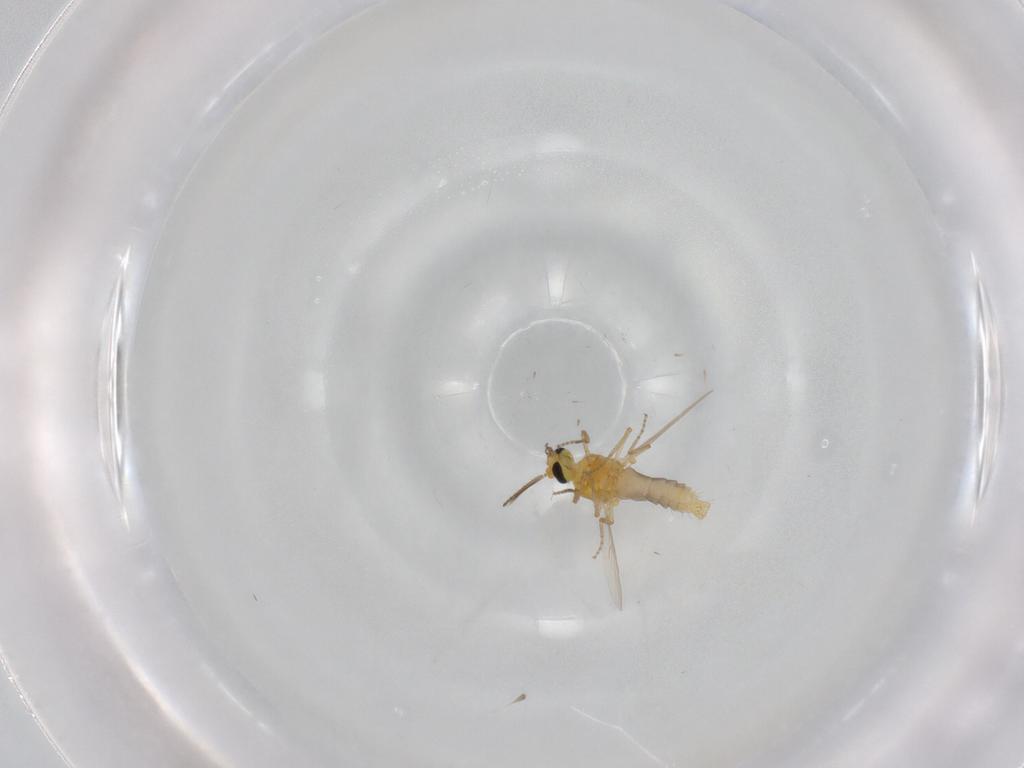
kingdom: Animalia
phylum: Arthropoda
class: Insecta
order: Diptera
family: Ceratopogonidae
